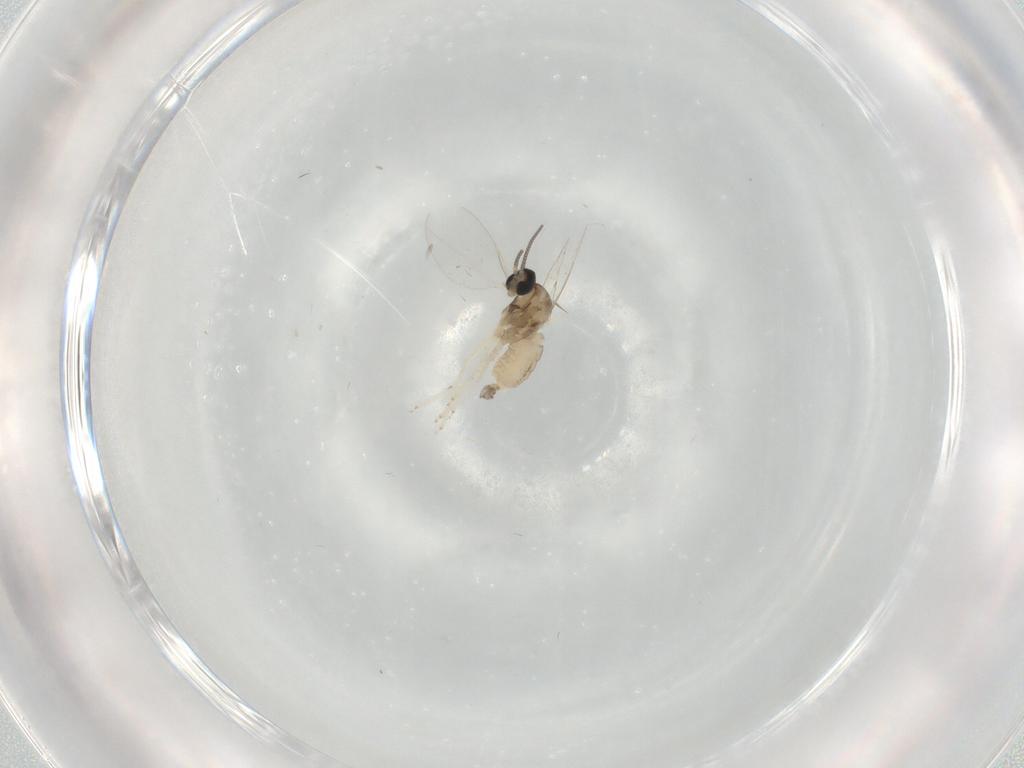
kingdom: Animalia
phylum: Arthropoda
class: Insecta
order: Diptera
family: Cecidomyiidae
